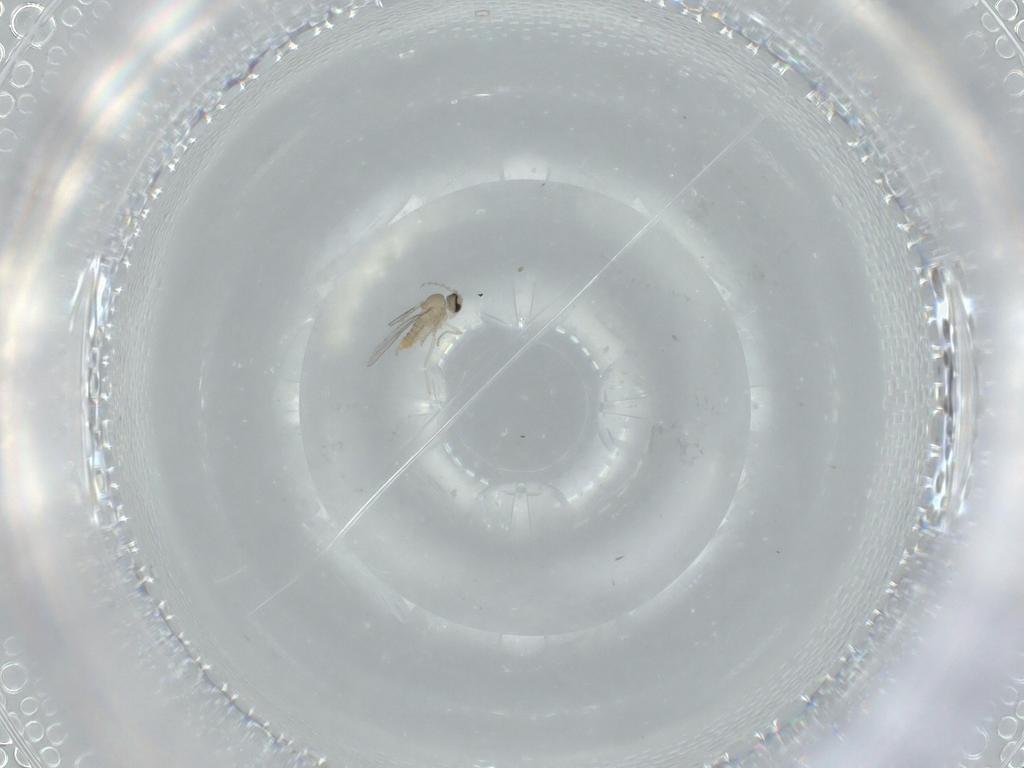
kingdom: Animalia
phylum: Arthropoda
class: Insecta
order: Diptera
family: Cecidomyiidae
